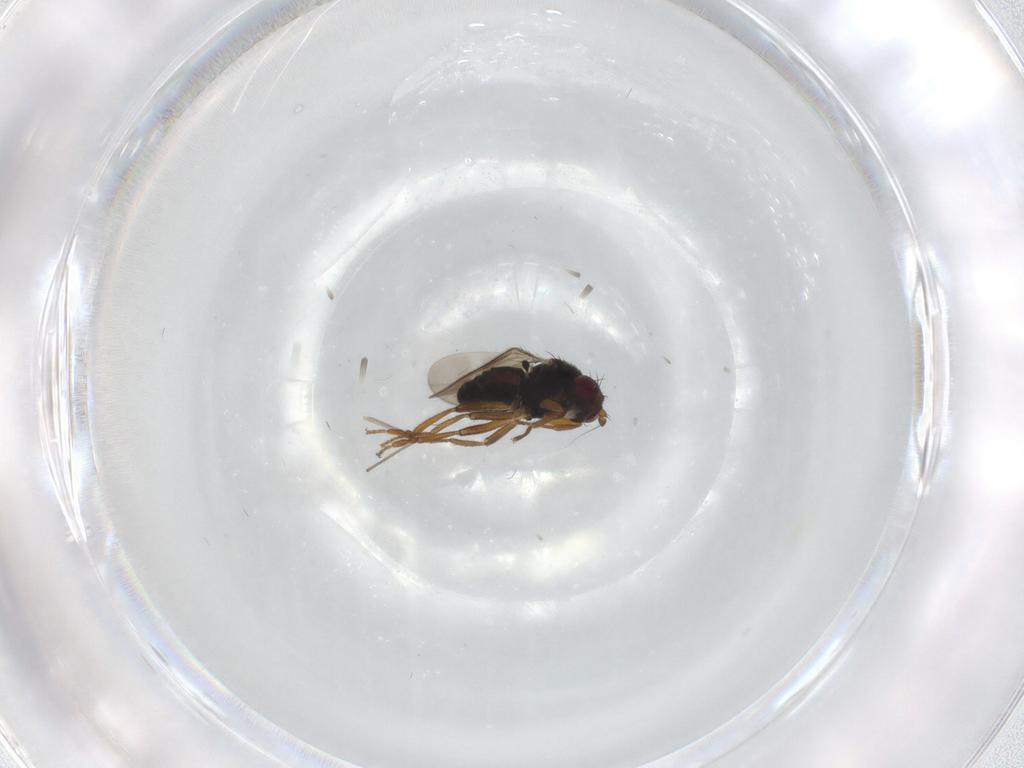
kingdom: Animalia
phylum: Arthropoda
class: Insecta
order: Diptera
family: Sphaeroceridae
